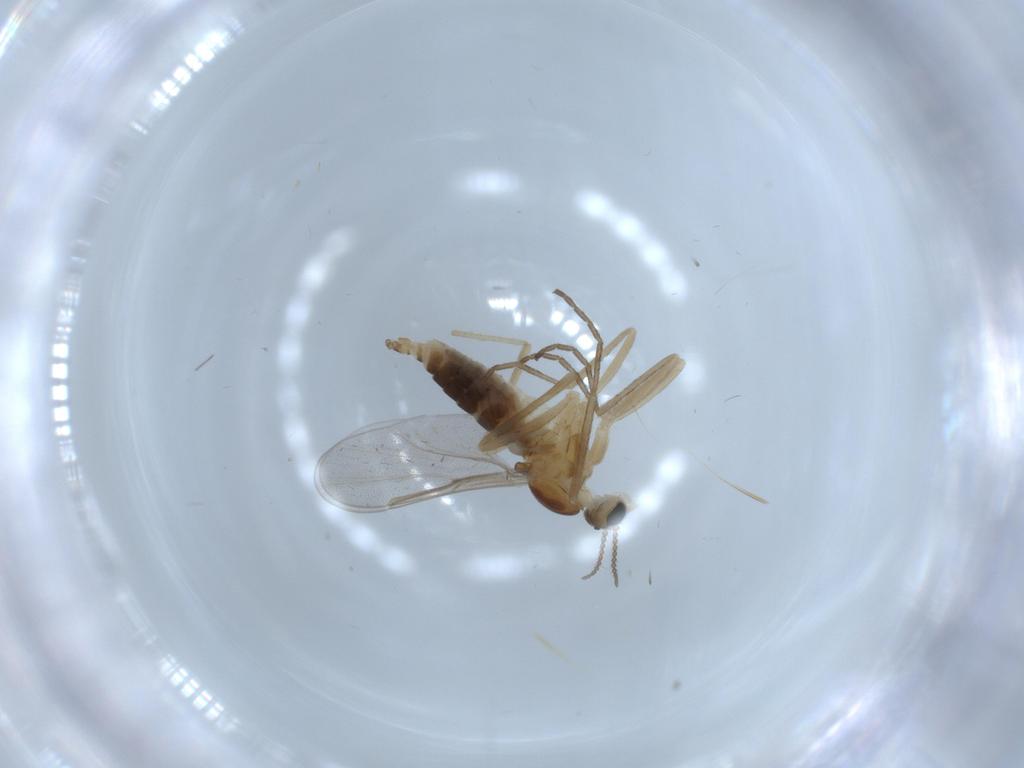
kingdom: Animalia
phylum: Arthropoda
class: Insecta
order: Diptera
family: Cecidomyiidae
